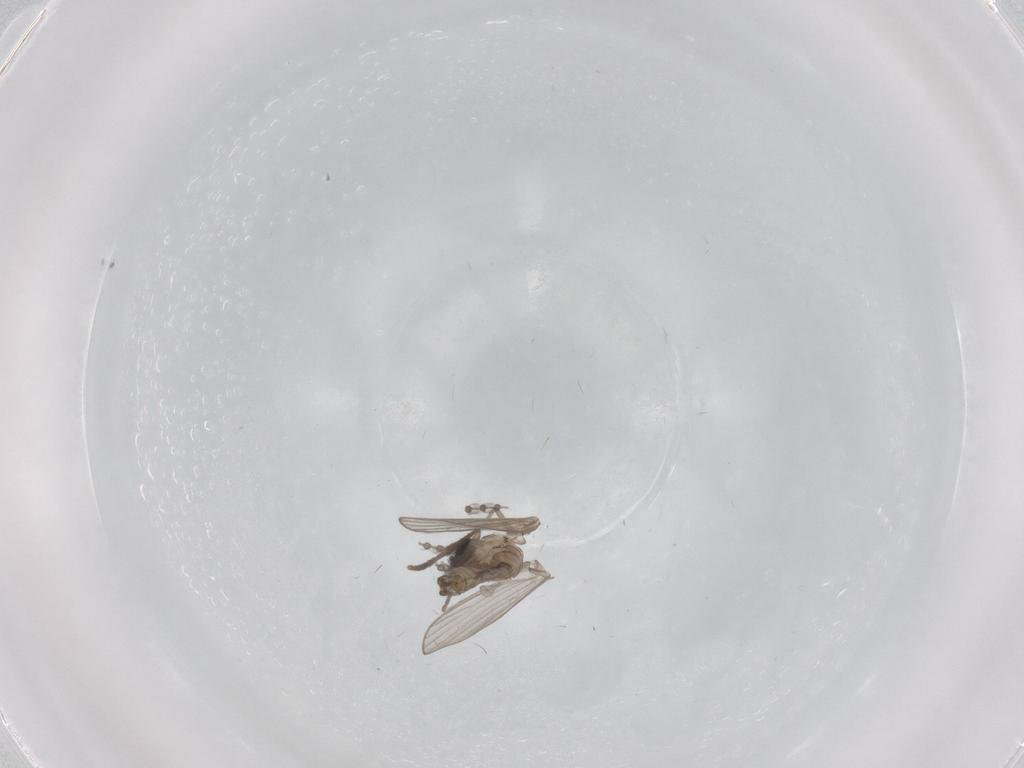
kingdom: Animalia
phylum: Arthropoda
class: Insecta
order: Diptera
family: Psychodidae
